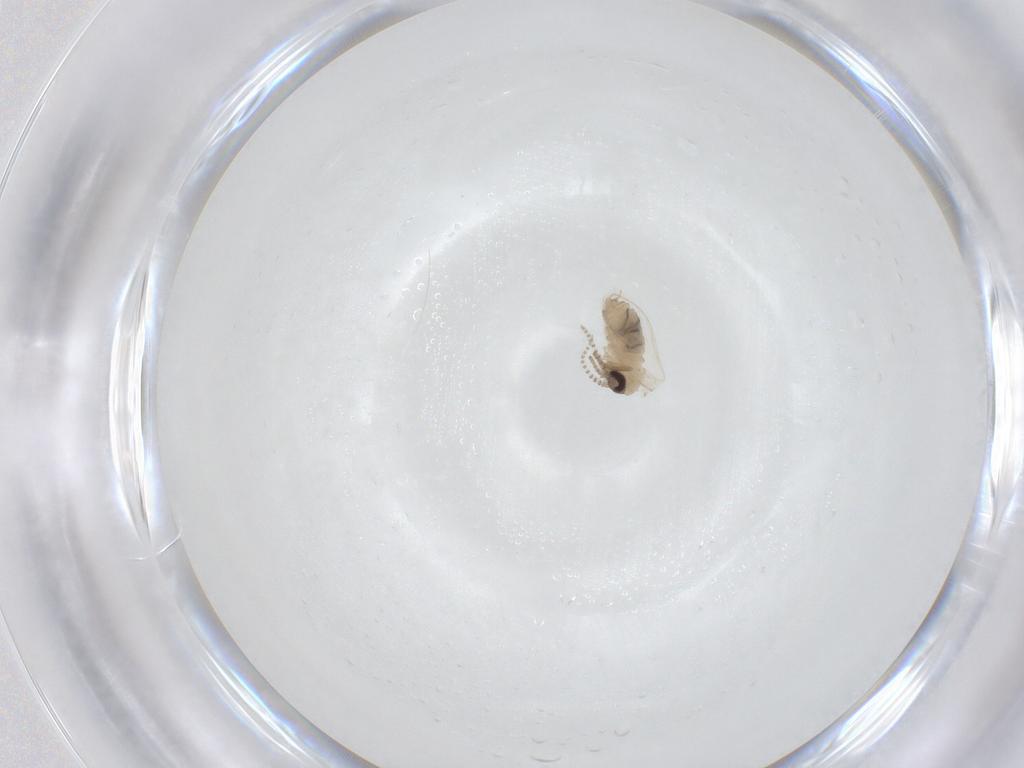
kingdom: Animalia
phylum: Arthropoda
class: Insecta
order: Diptera
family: Psychodidae
